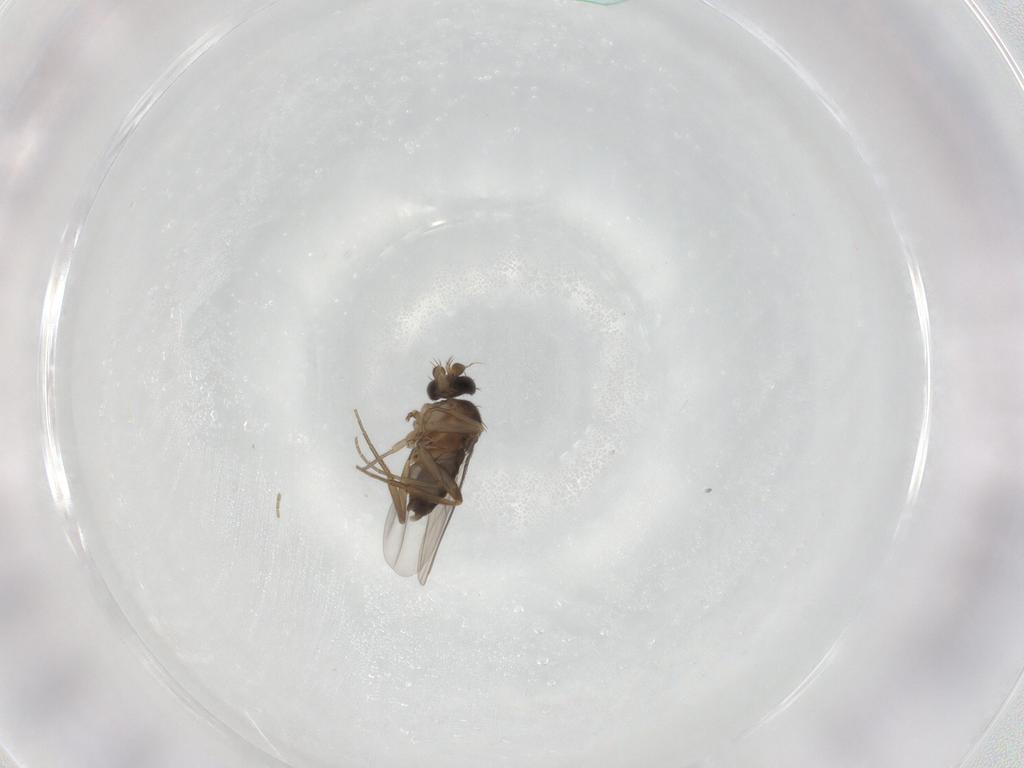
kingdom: Animalia
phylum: Arthropoda
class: Insecta
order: Diptera
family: Phoridae
